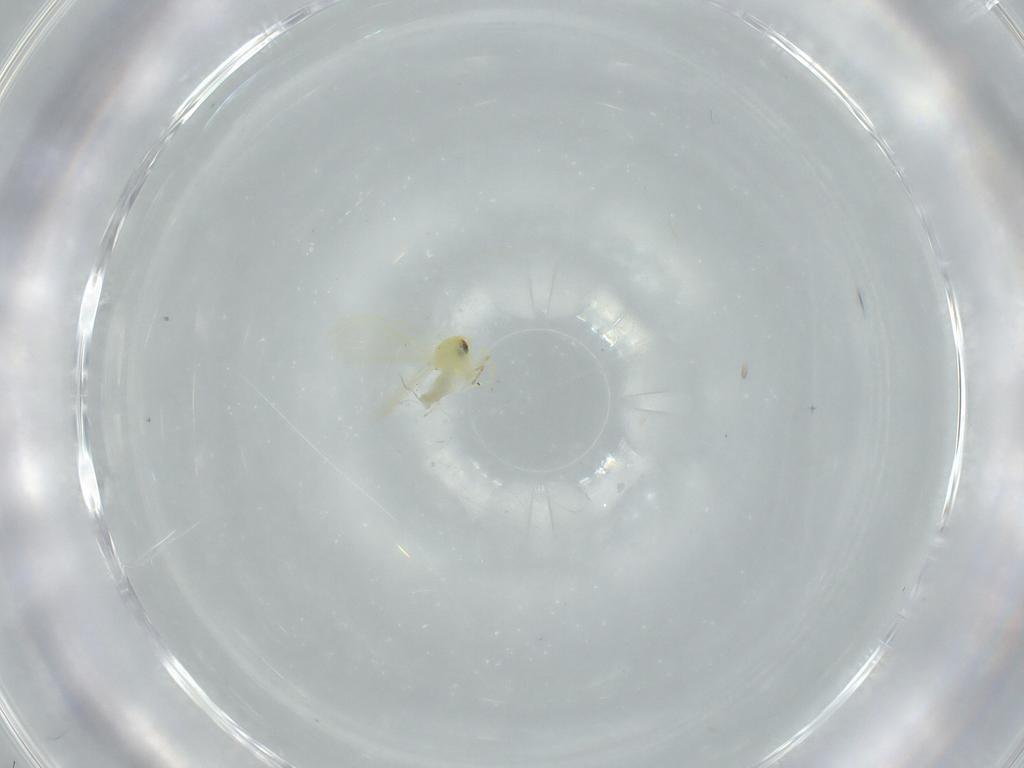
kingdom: Animalia
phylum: Arthropoda
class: Insecta
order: Hemiptera
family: Aleyrodidae
